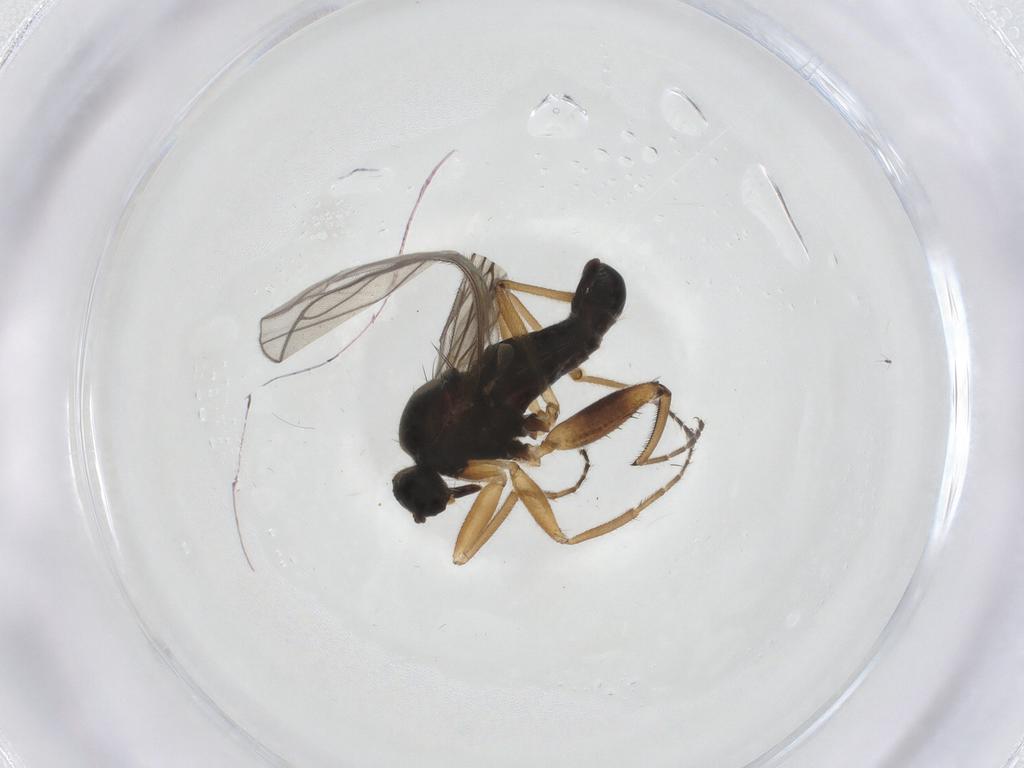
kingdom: Animalia
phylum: Arthropoda
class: Insecta
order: Diptera
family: Hybotidae
